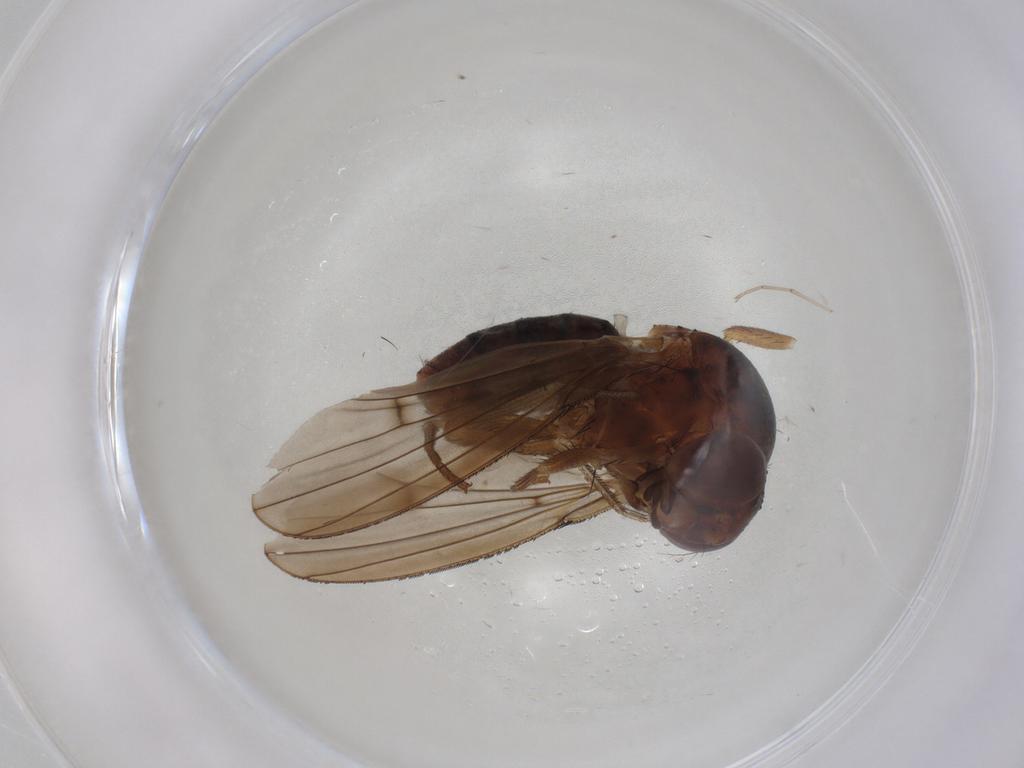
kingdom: Animalia
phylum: Arthropoda
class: Insecta
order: Diptera
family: Curtonotidae
